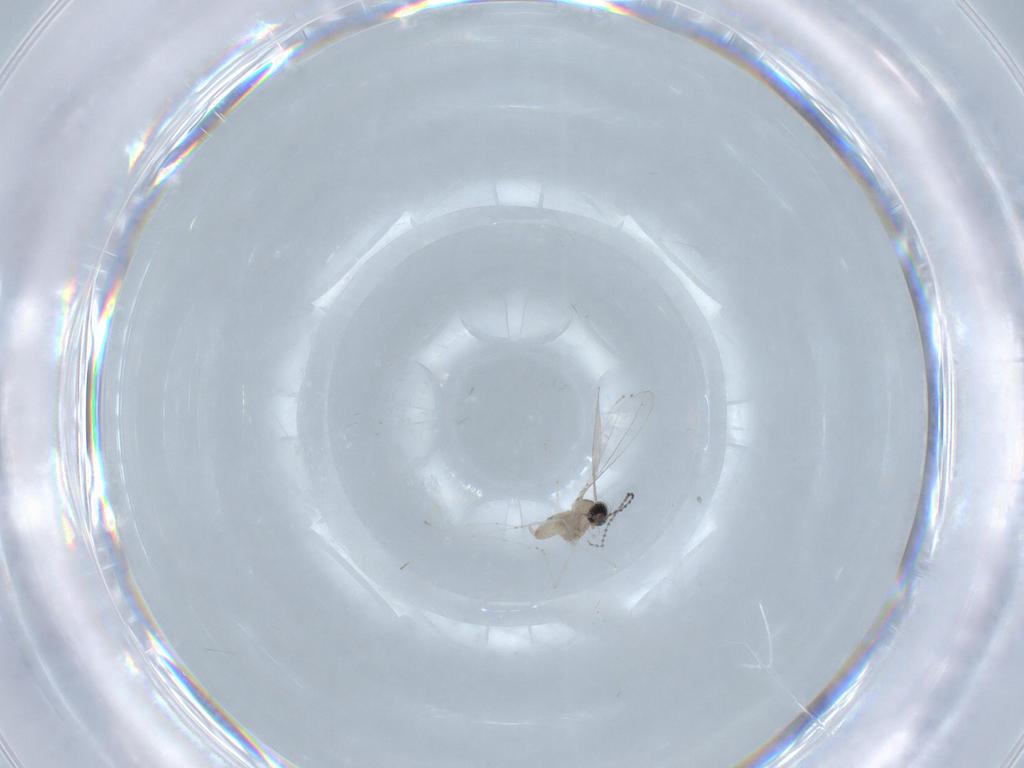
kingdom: Animalia
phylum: Arthropoda
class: Insecta
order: Diptera
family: Cecidomyiidae
